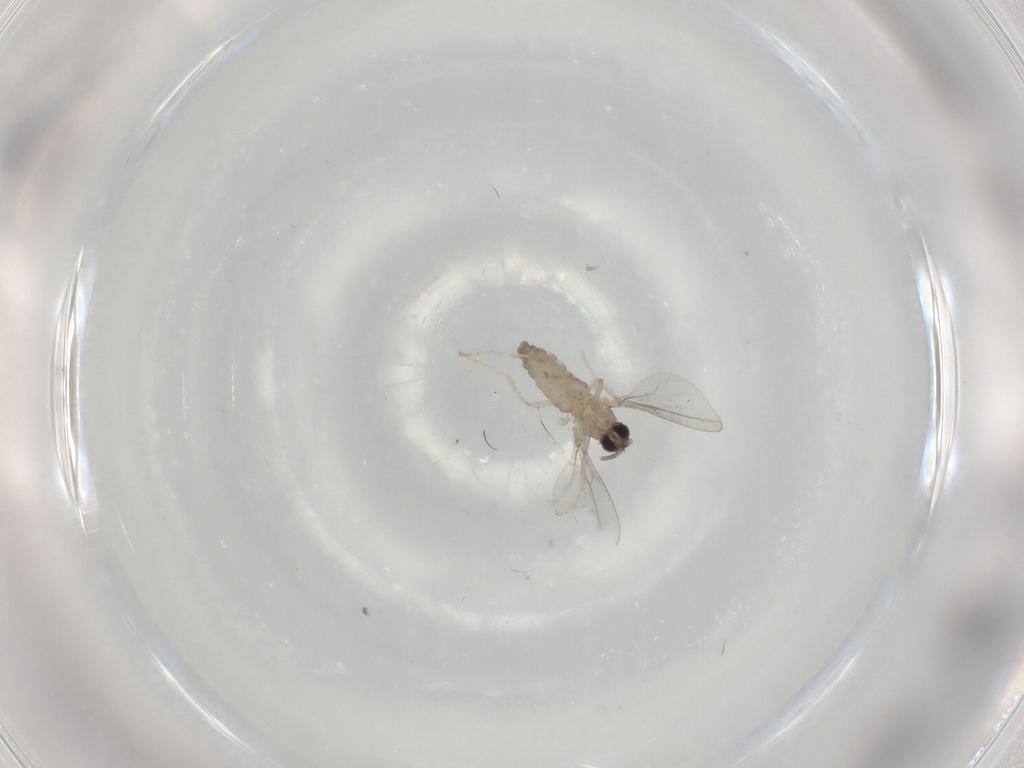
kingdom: Animalia
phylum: Arthropoda
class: Insecta
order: Diptera
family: Cecidomyiidae
